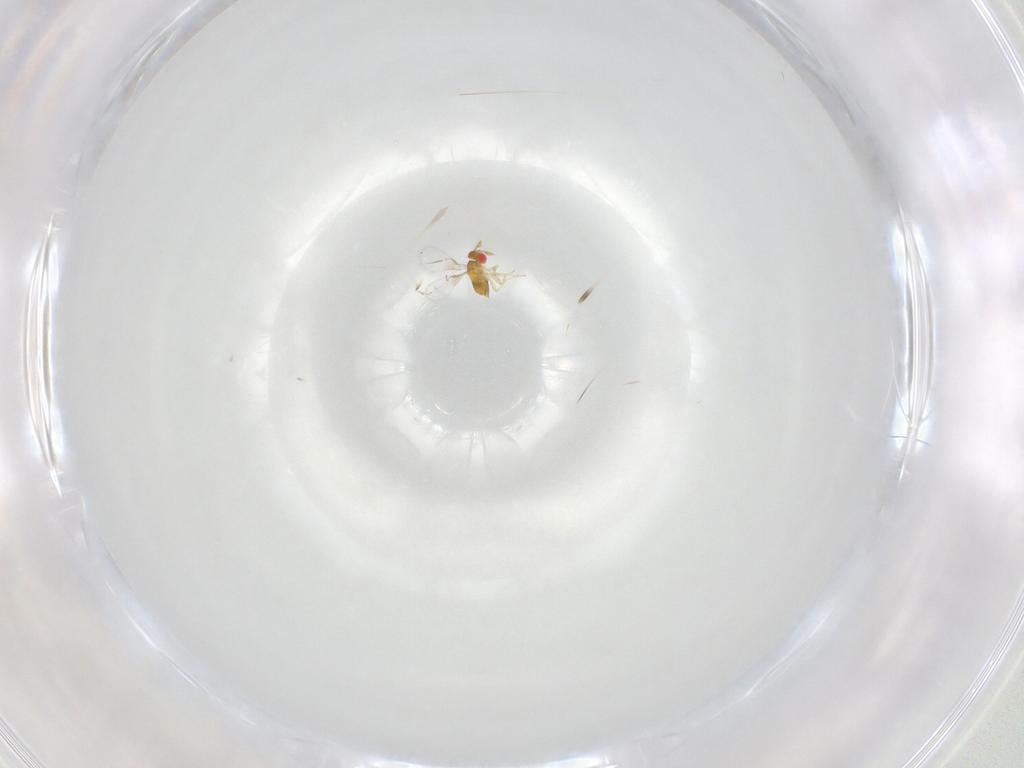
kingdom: Animalia
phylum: Arthropoda
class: Insecta
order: Hymenoptera
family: Trichogrammatidae
